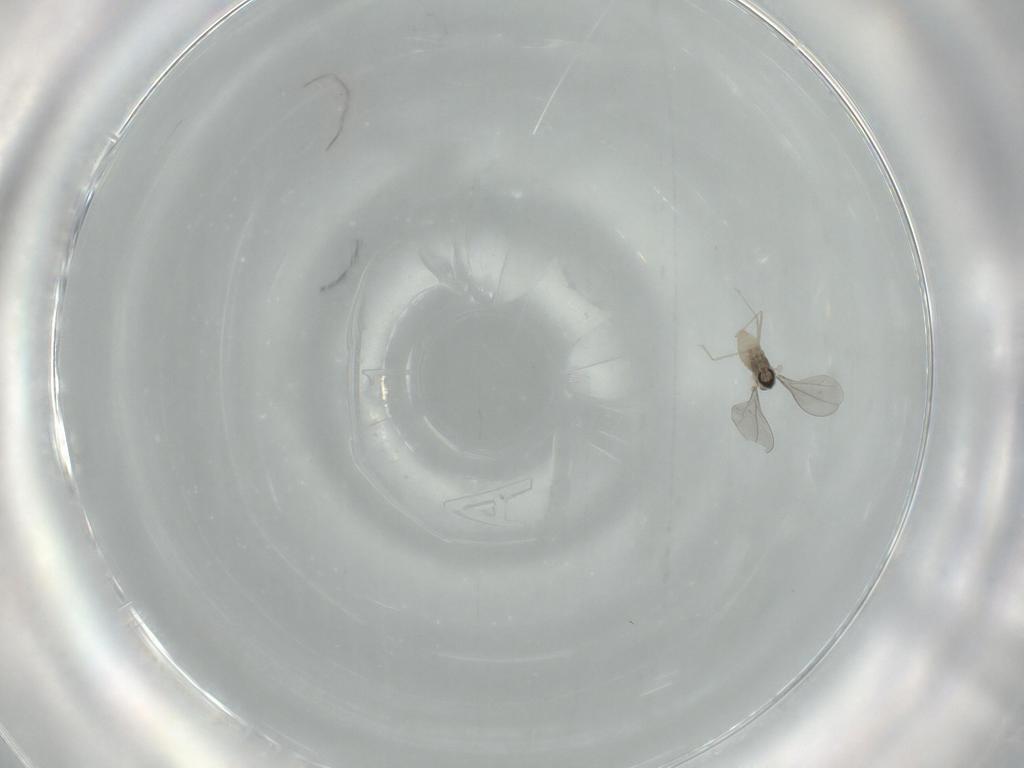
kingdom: Animalia
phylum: Arthropoda
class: Insecta
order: Diptera
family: Cecidomyiidae
